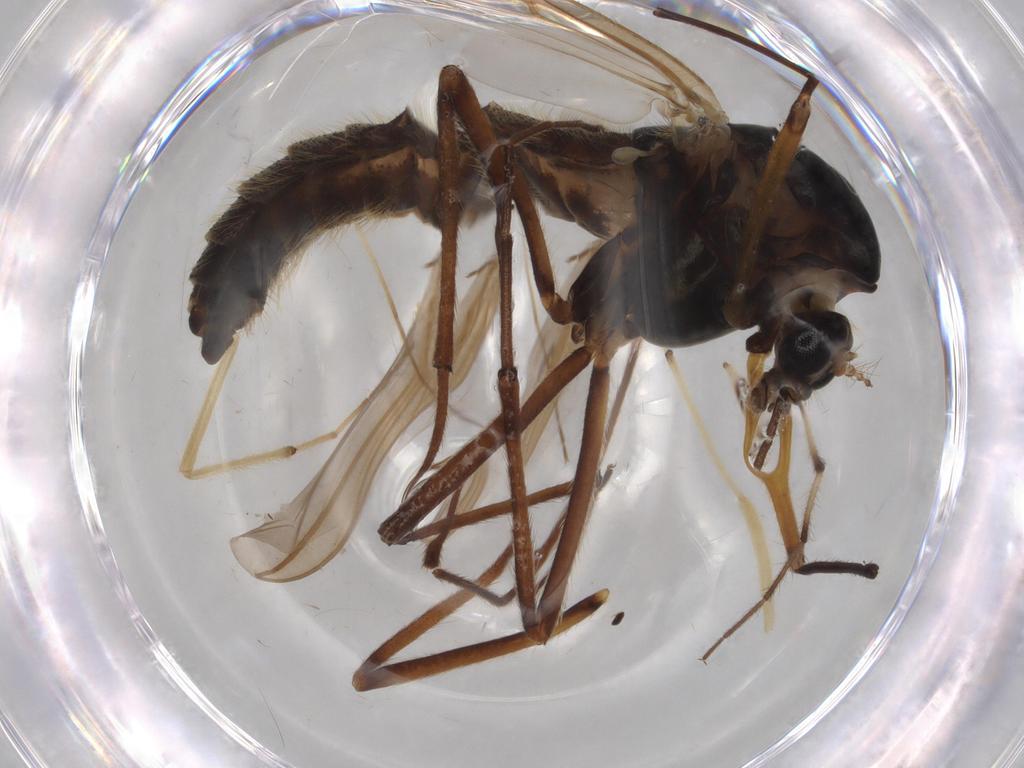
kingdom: Animalia
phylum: Arthropoda
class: Insecta
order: Diptera
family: Chironomidae
